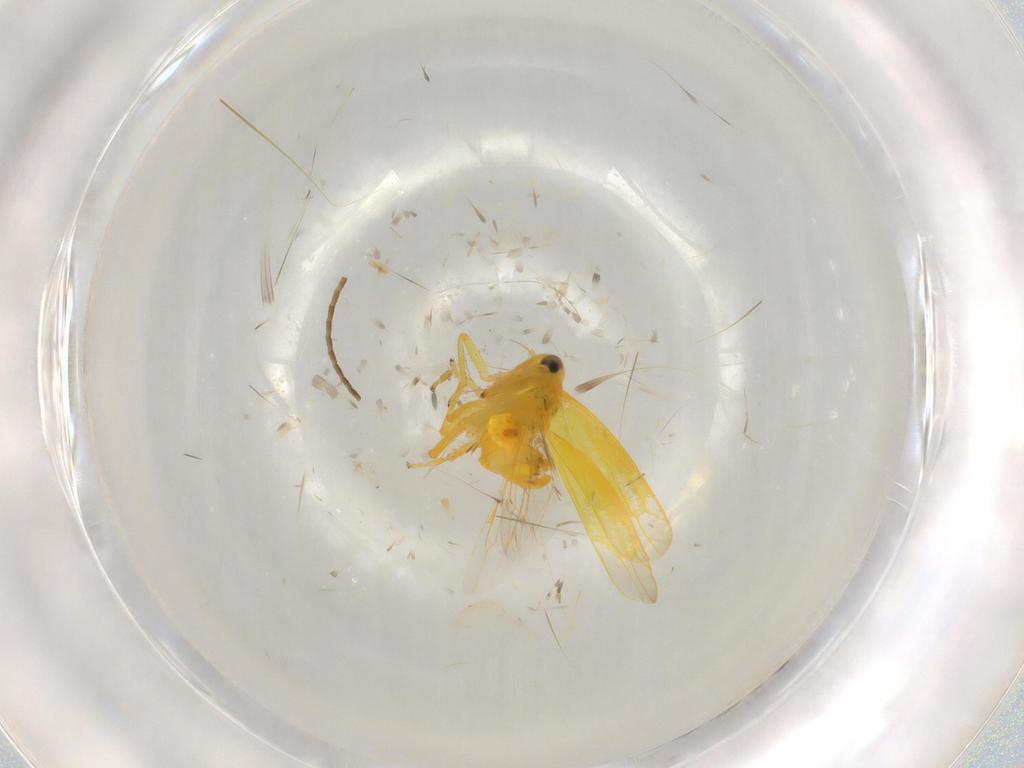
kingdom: Animalia
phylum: Arthropoda
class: Insecta
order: Hemiptera
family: Cicadellidae
